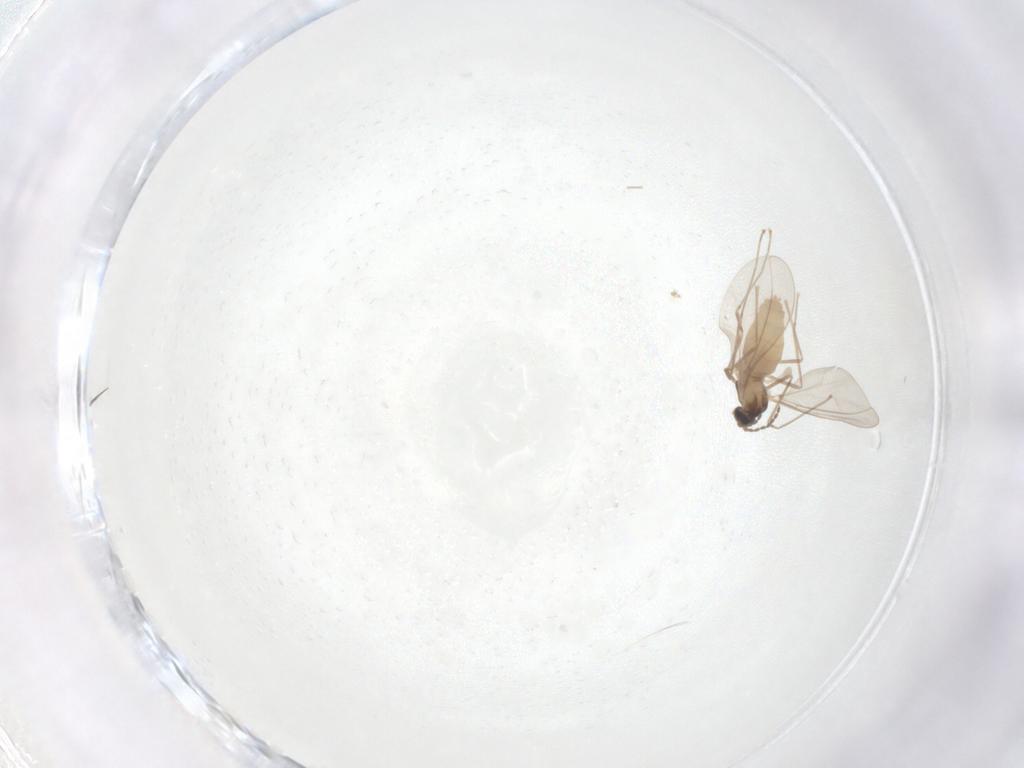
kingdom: Animalia
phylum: Arthropoda
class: Insecta
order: Diptera
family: Cecidomyiidae
